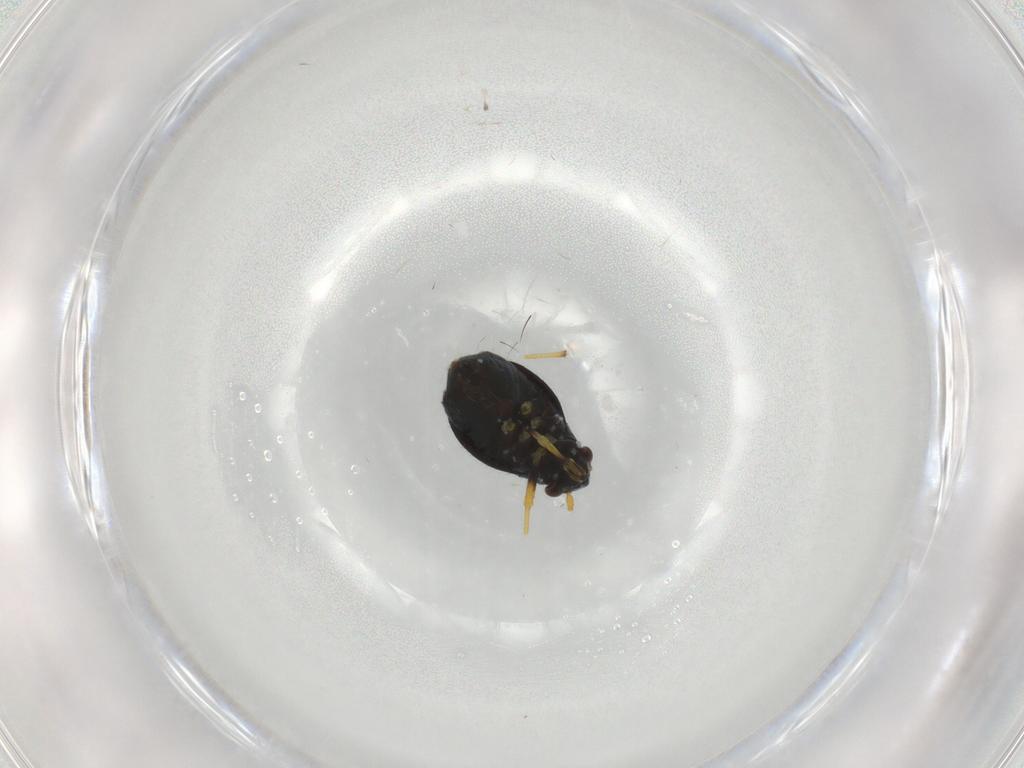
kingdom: Animalia
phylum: Arthropoda
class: Insecta
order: Hemiptera
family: Miridae
